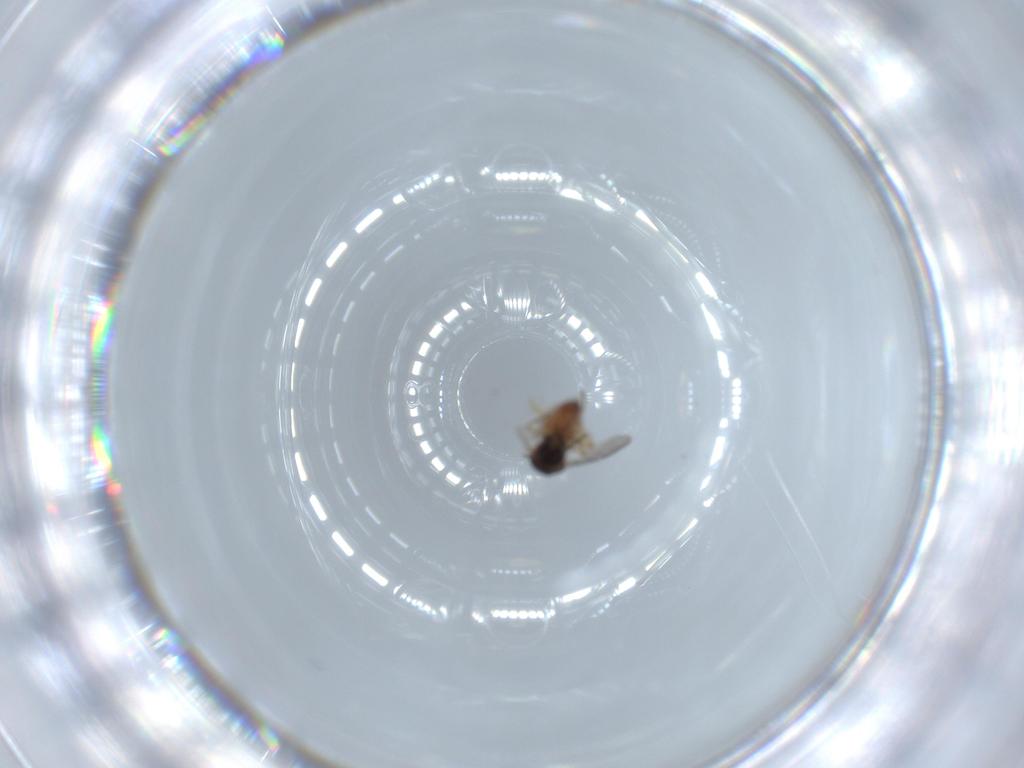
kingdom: Animalia
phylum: Arthropoda
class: Insecta
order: Diptera
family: Ceratopogonidae
